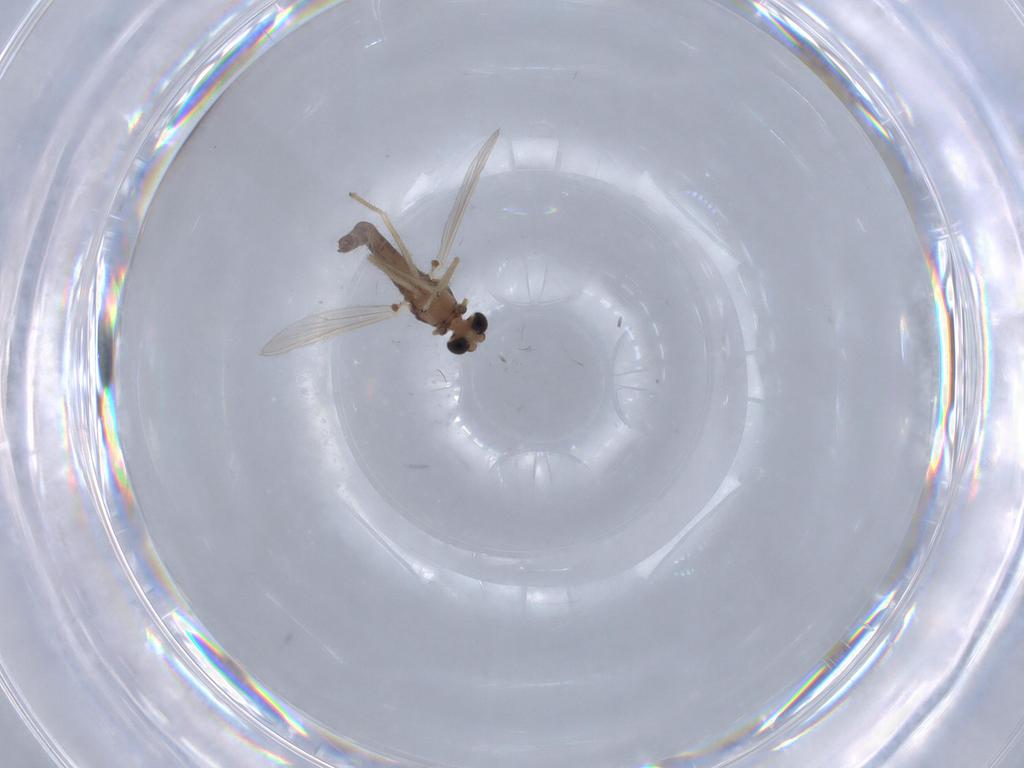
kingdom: Animalia
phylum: Arthropoda
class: Insecta
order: Diptera
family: Chironomidae
